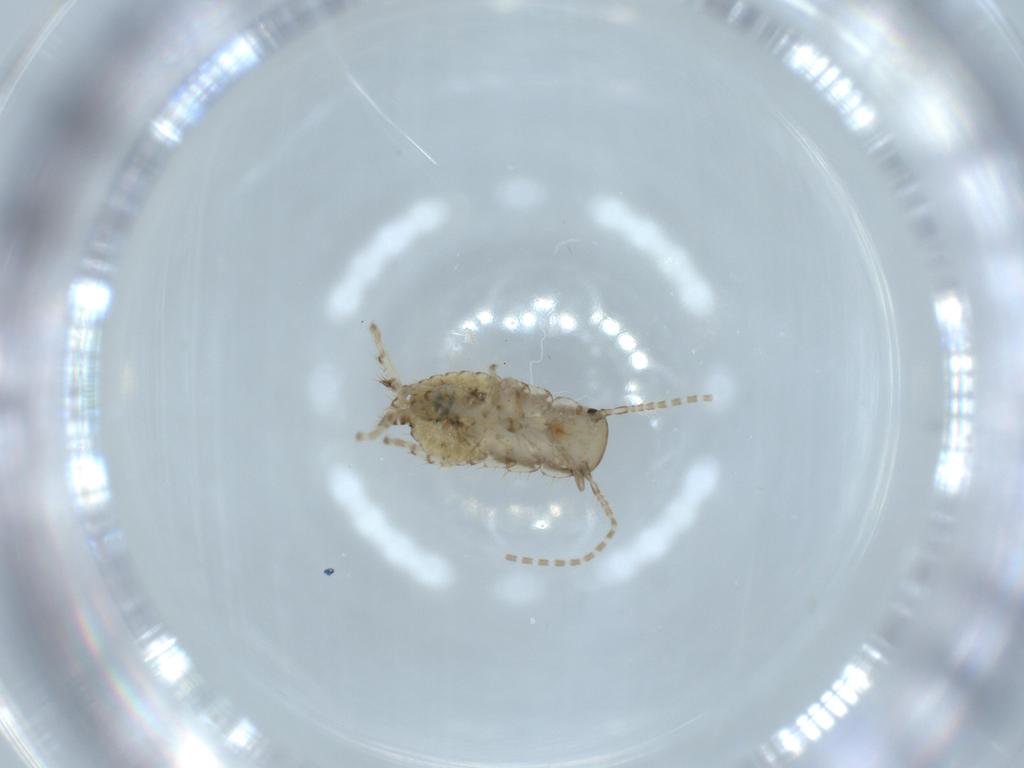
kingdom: Animalia
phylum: Arthropoda
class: Insecta
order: Blattodea
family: Ectobiidae
